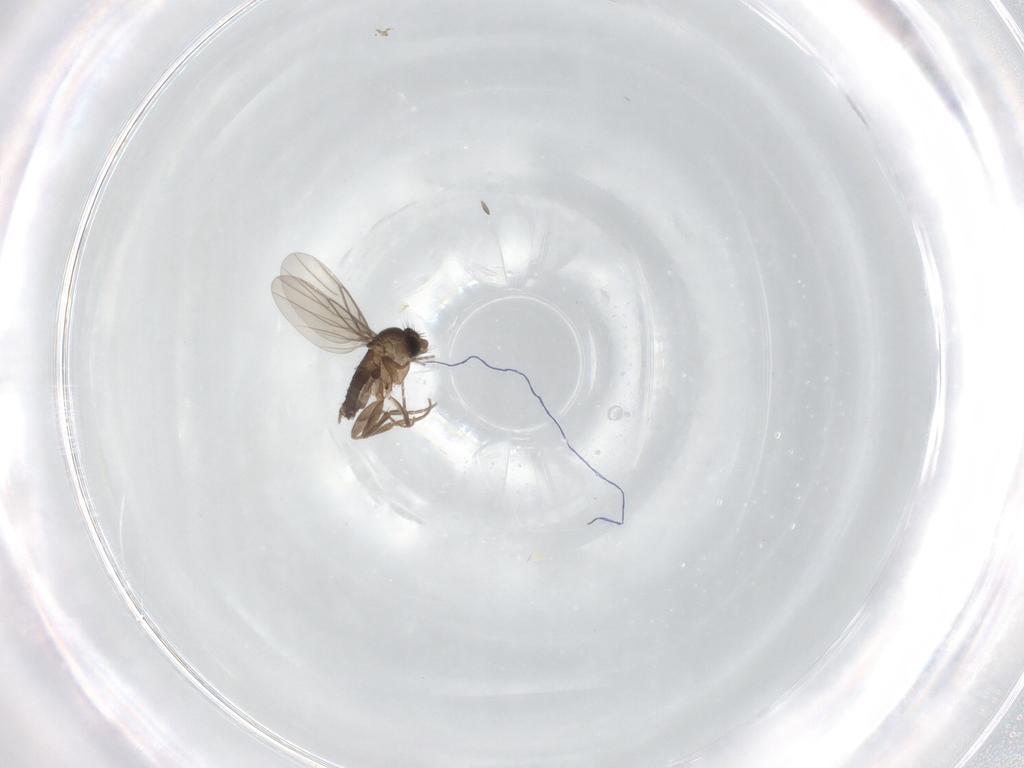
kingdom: Animalia
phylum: Arthropoda
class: Insecta
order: Diptera
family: Phoridae
